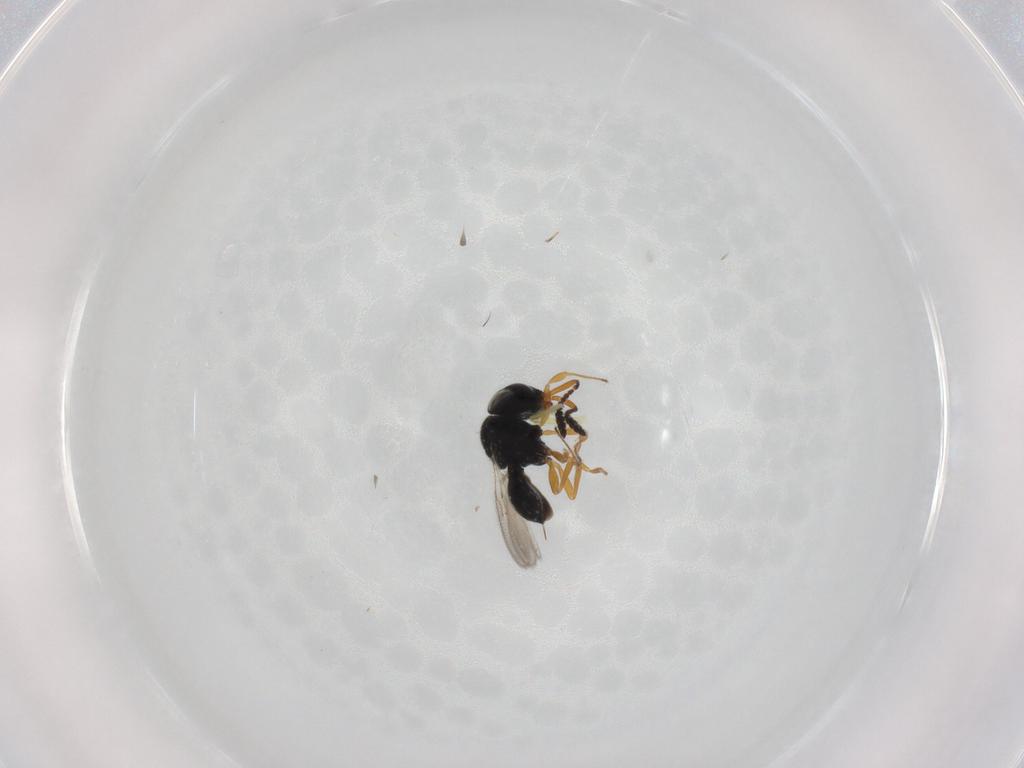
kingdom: Animalia
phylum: Arthropoda
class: Insecta
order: Hymenoptera
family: Scelionidae
